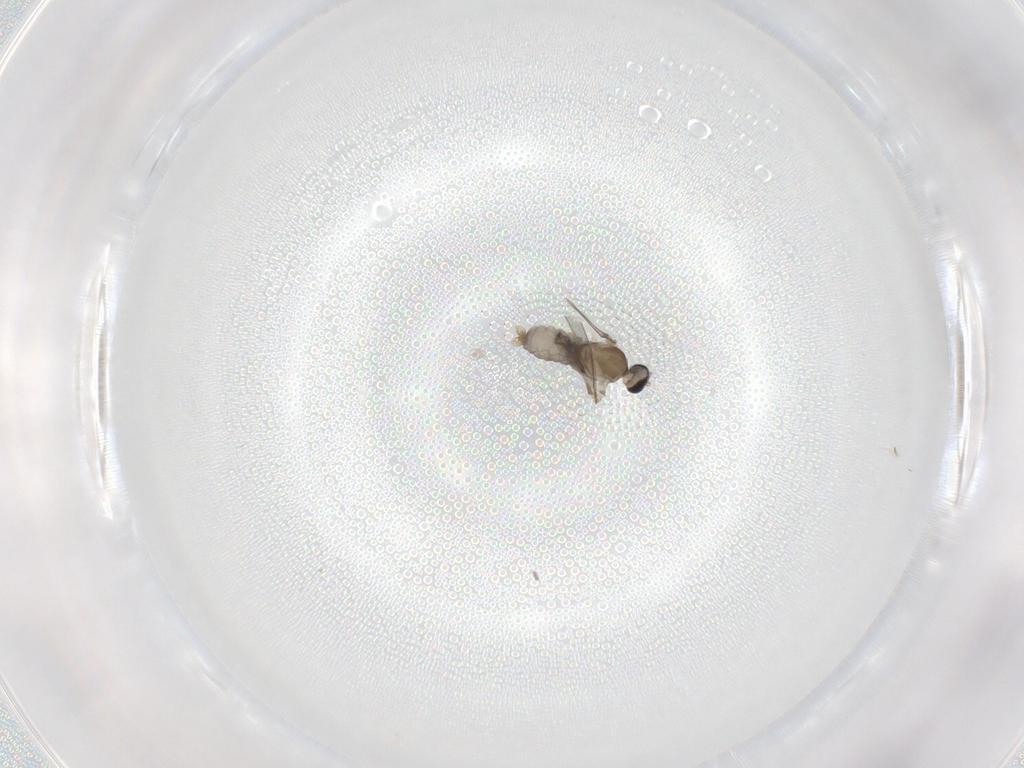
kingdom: Animalia
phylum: Arthropoda
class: Insecta
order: Diptera
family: Cecidomyiidae
